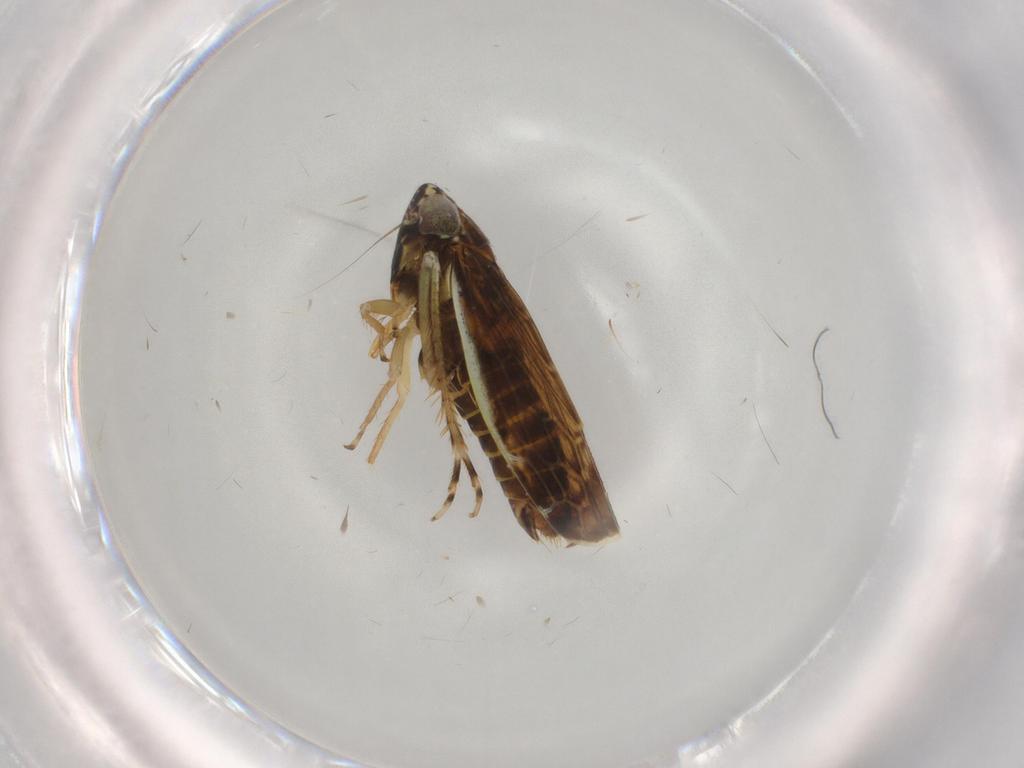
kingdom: Animalia
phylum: Arthropoda
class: Insecta
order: Hemiptera
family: Cicadellidae
